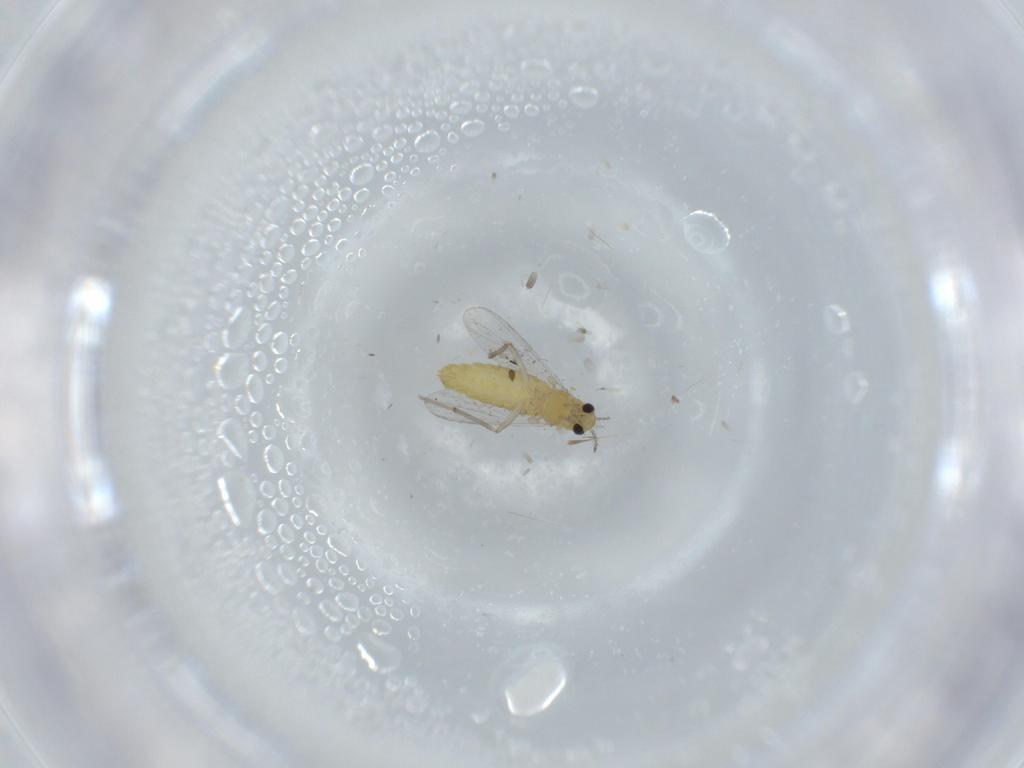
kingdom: Animalia
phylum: Arthropoda
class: Insecta
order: Diptera
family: Chironomidae
